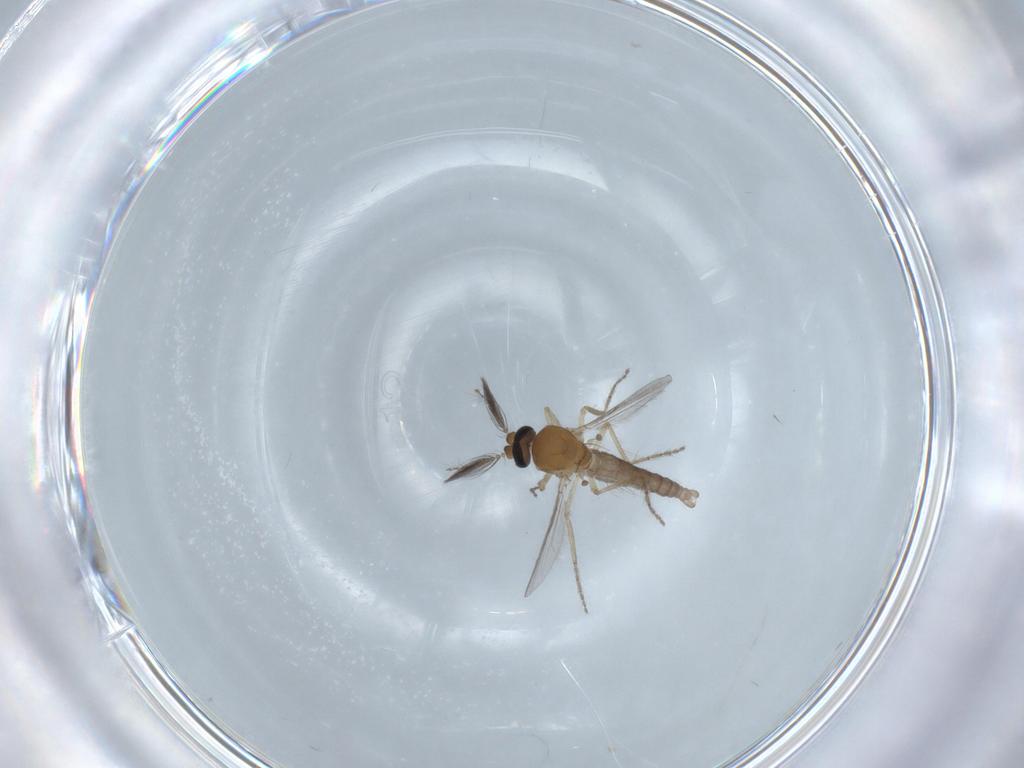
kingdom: Animalia
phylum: Arthropoda
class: Insecta
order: Diptera
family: Ceratopogonidae
